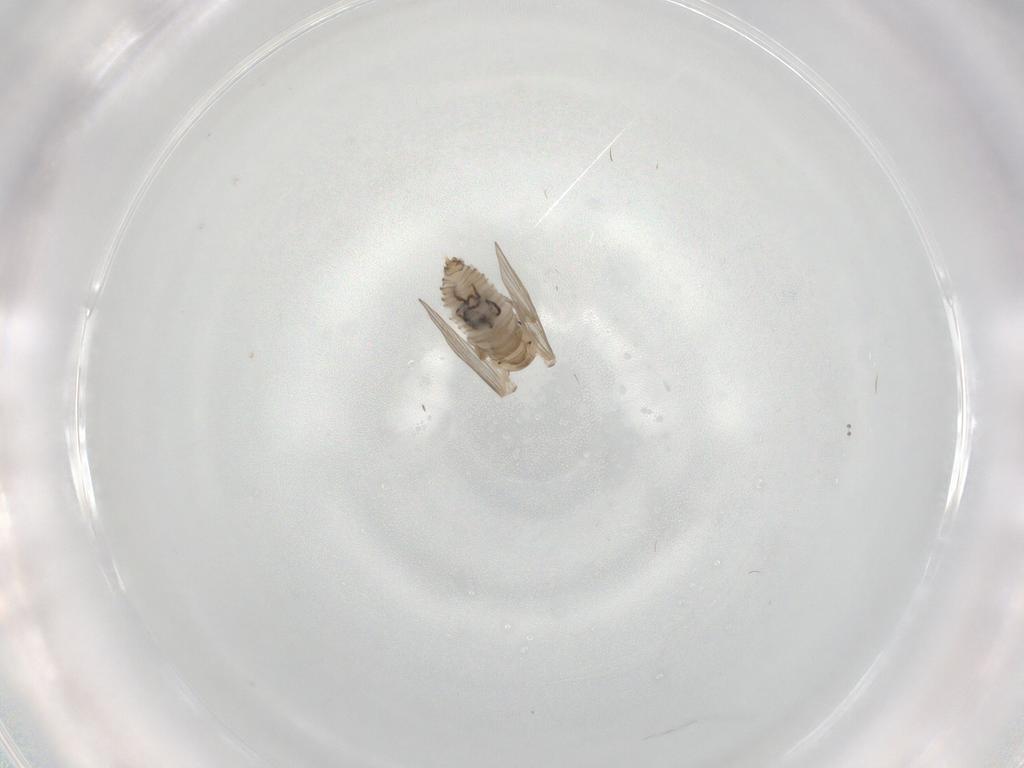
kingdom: Animalia
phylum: Arthropoda
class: Insecta
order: Diptera
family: Psychodidae
